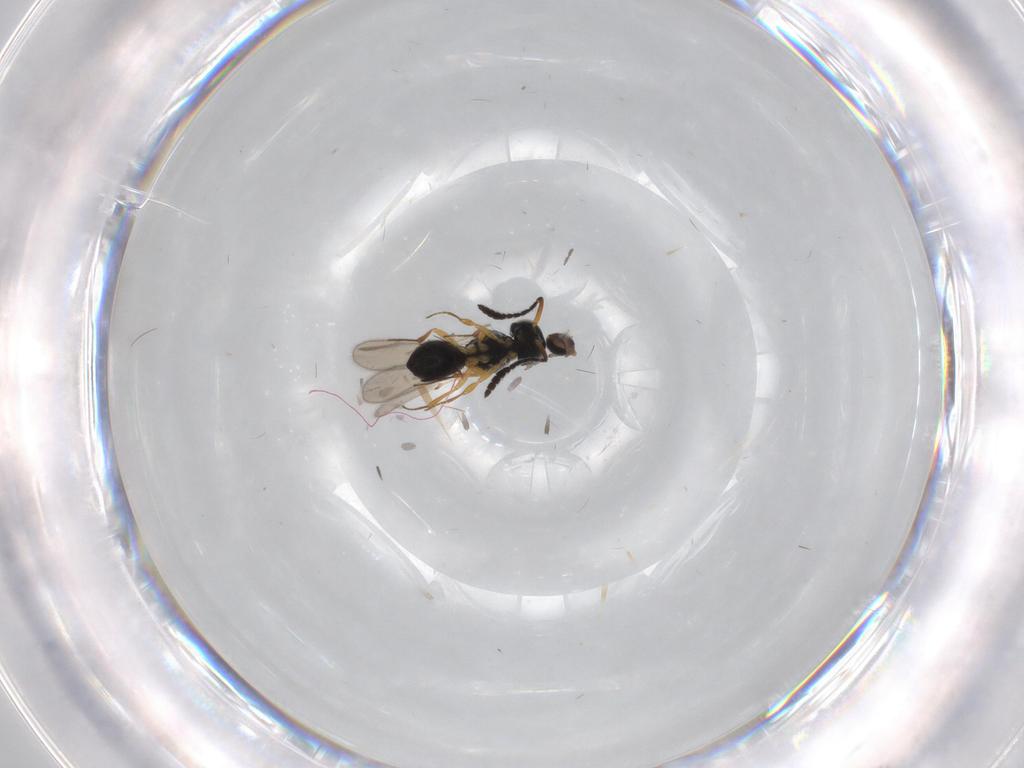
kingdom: Animalia
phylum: Arthropoda
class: Insecta
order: Hymenoptera
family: Scelionidae
